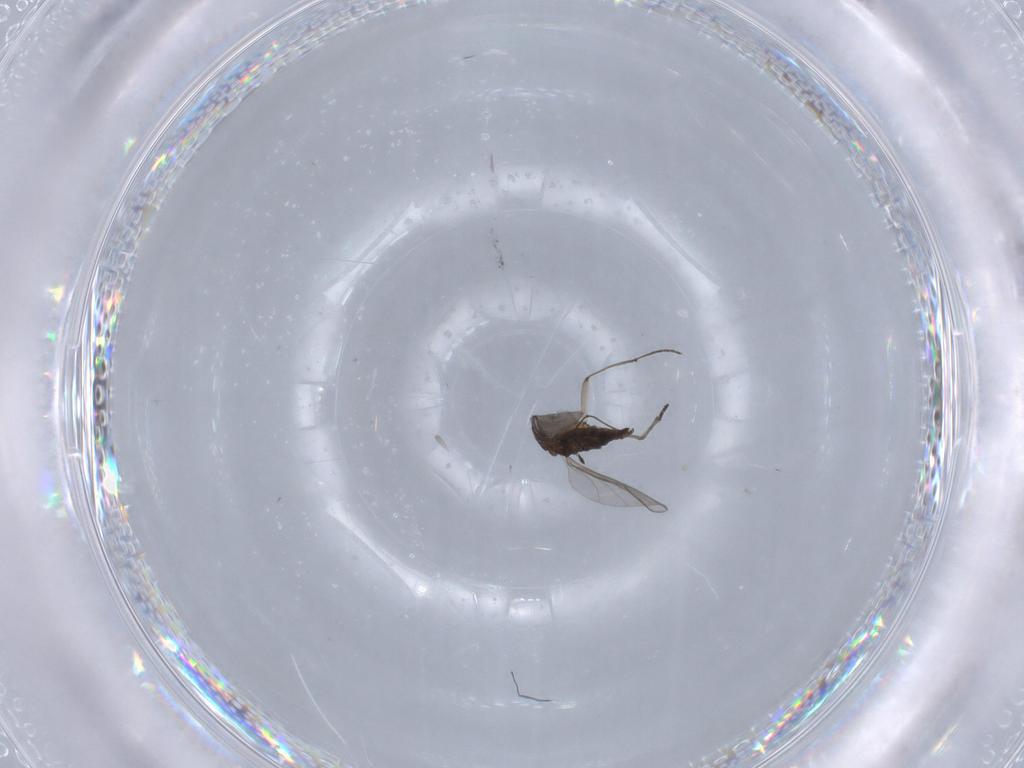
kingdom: Animalia
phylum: Arthropoda
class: Insecta
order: Diptera
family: Sciaridae
